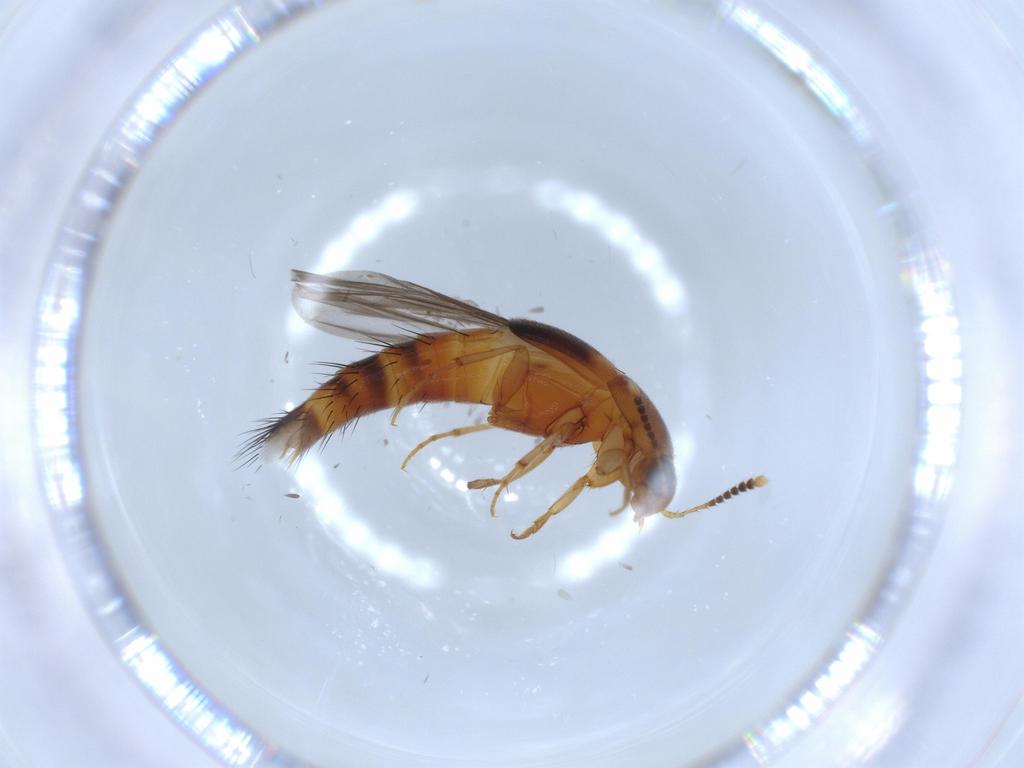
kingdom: Animalia
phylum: Arthropoda
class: Insecta
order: Coleoptera
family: Staphylinidae
